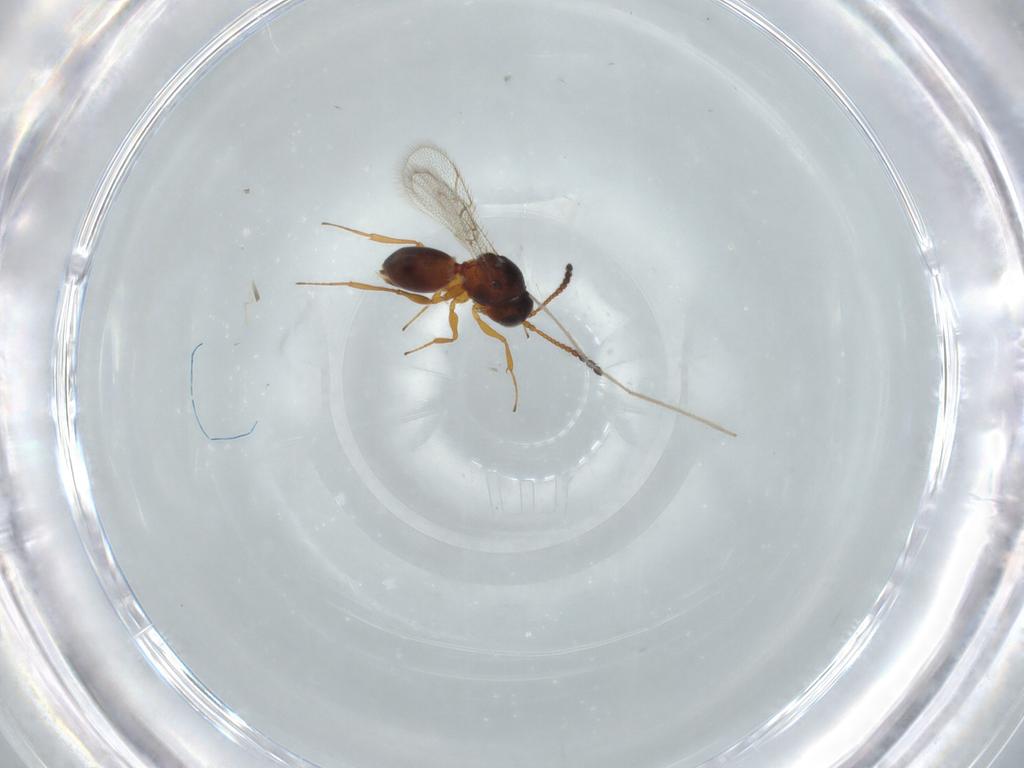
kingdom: Animalia
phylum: Arthropoda
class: Insecta
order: Hymenoptera
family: Figitidae
